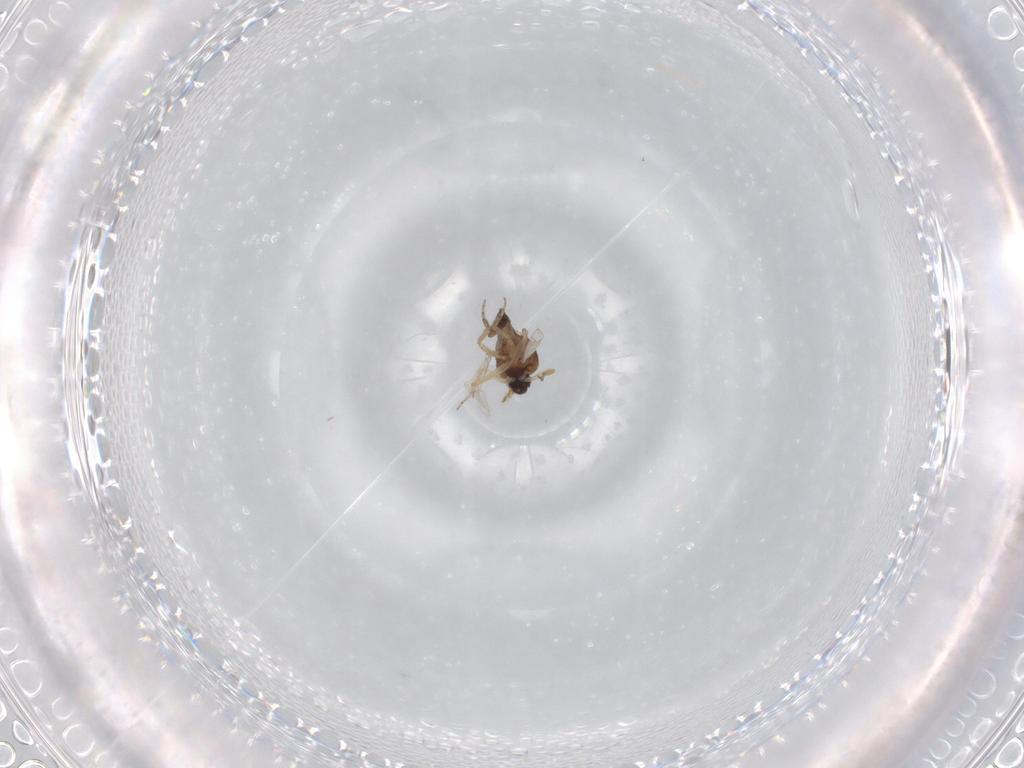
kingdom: Animalia
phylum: Arthropoda
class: Insecta
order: Diptera
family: Ceratopogonidae
